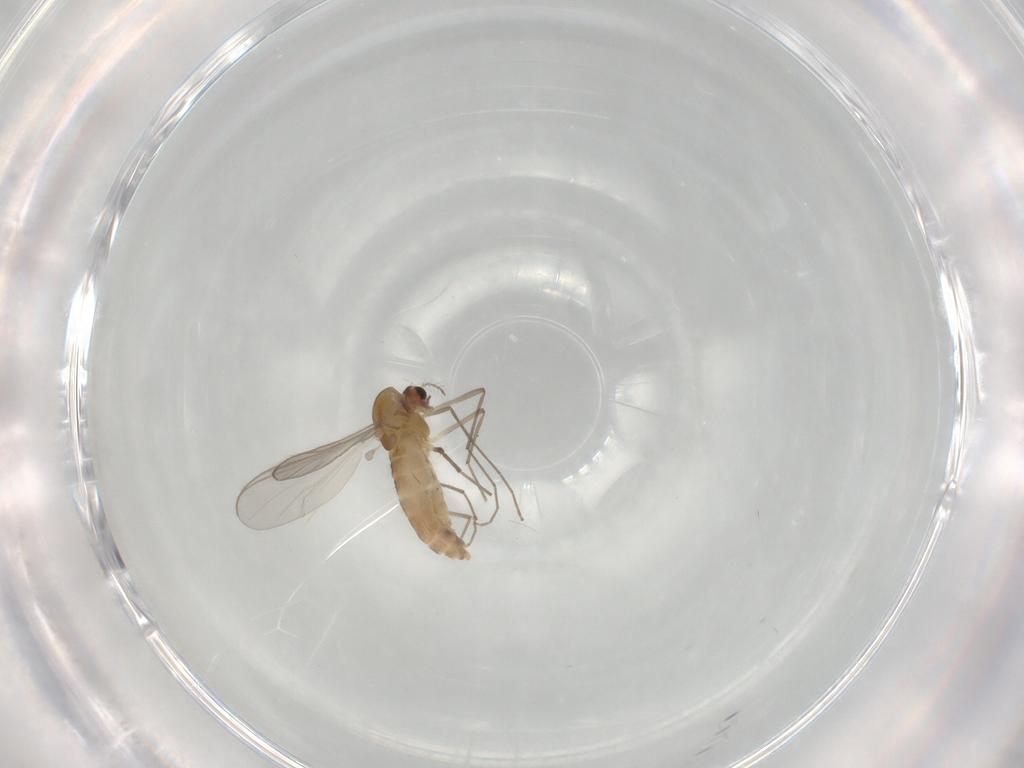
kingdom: Animalia
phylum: Arthropoda
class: Insecta
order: Diptera
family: Chironomidae
